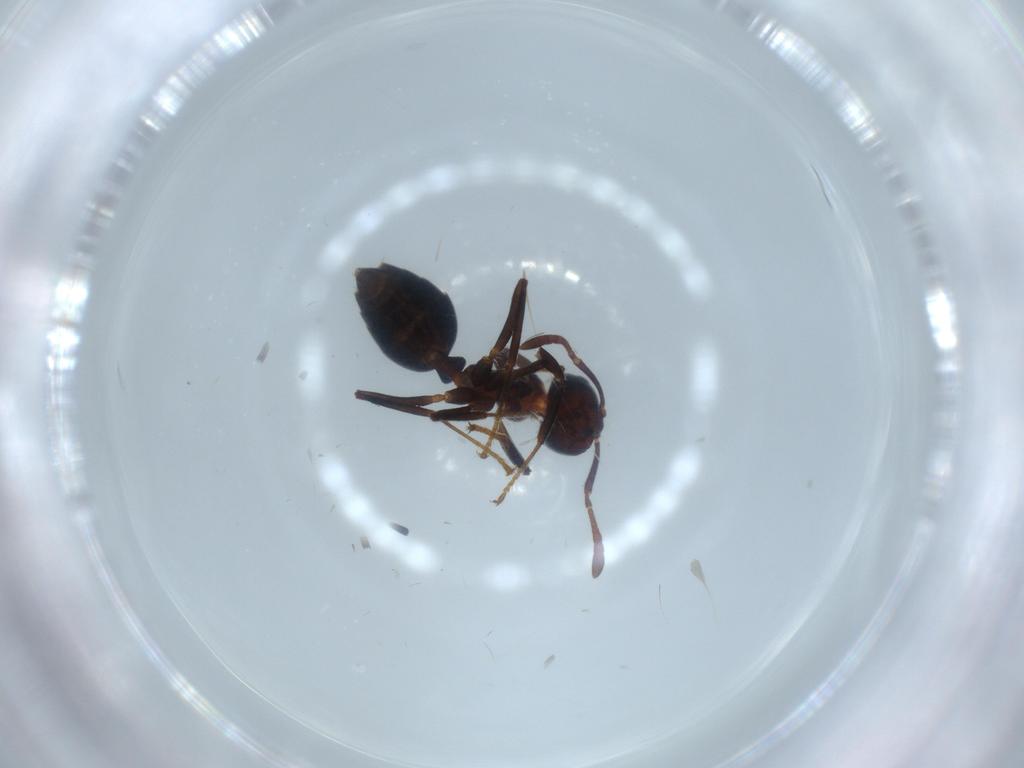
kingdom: Animalia
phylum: Arthropoda
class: Insecta
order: Hymenoptera
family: Formicidae
